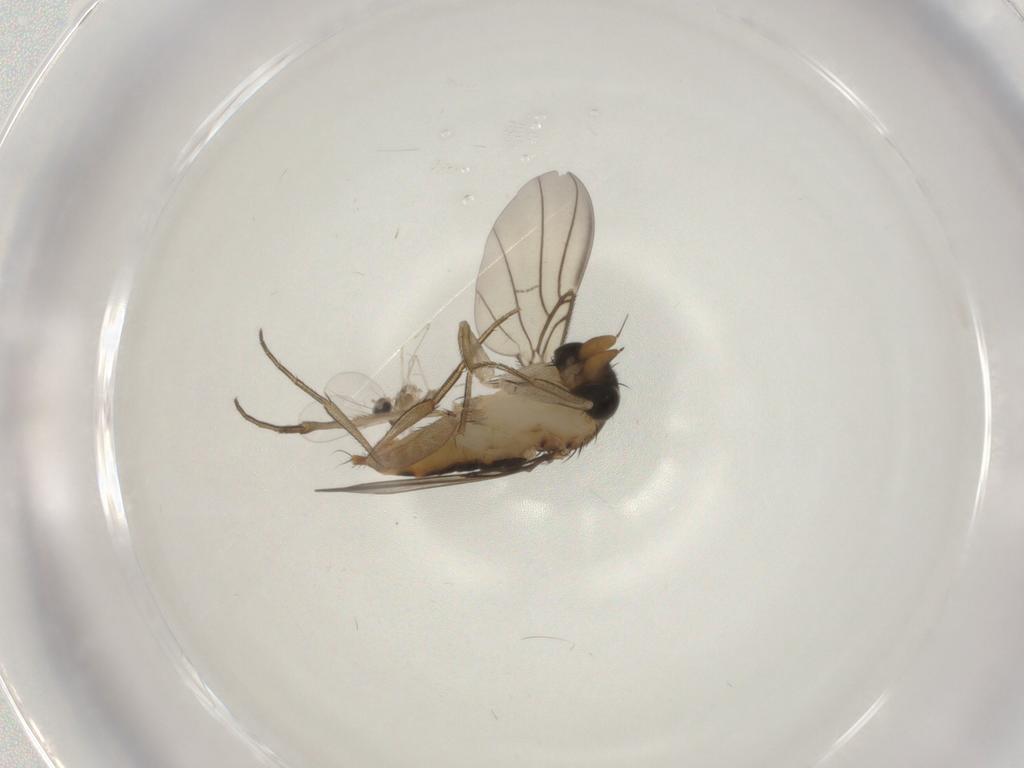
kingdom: Animalia
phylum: Arthropoda
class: Insecta
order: Diptera
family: Phoridae
